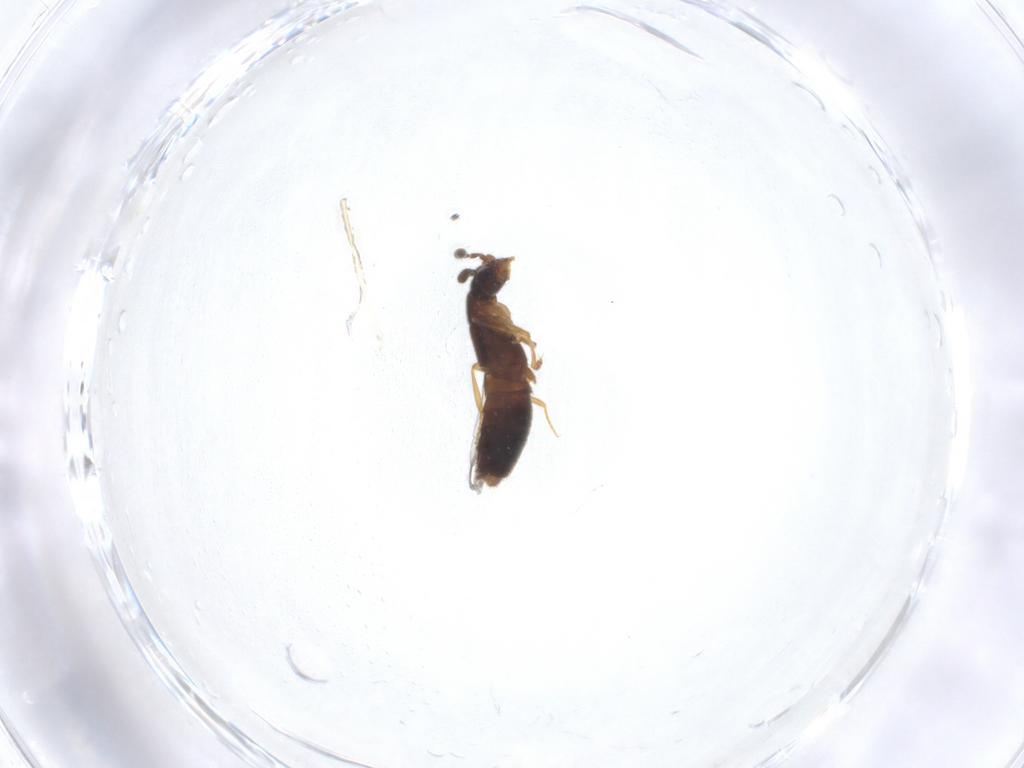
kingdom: Animalia
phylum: Arthropoda
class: Insecta
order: Coleoptera
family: Staphylinidae
